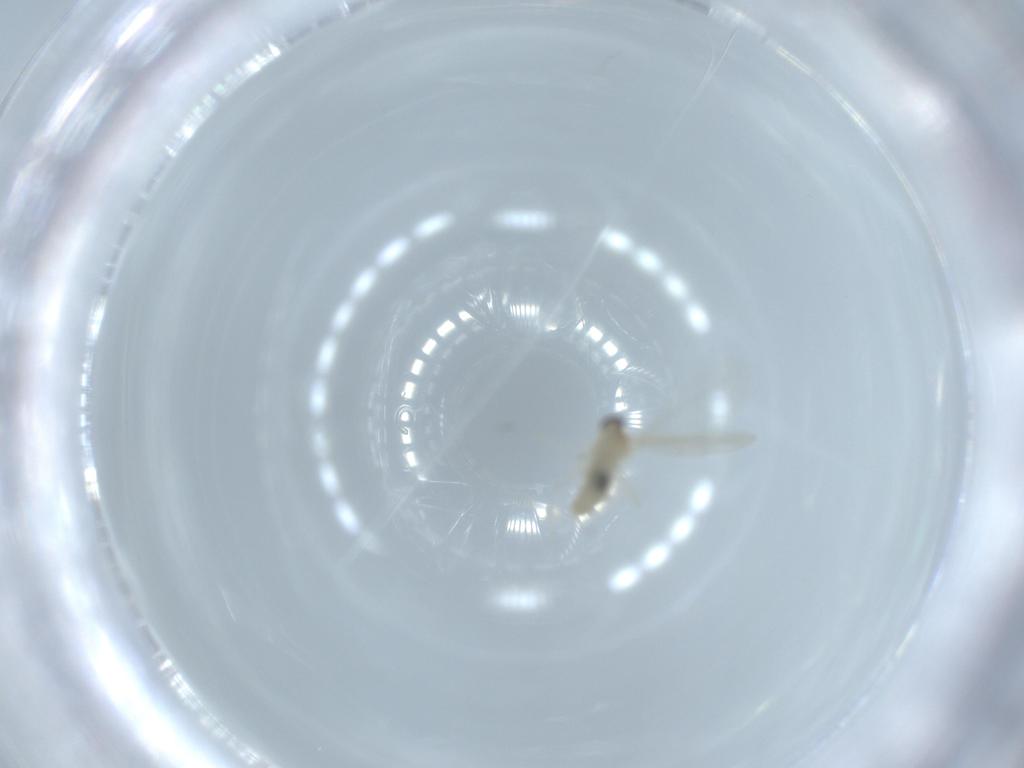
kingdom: Animalia
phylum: Arthropoda
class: Insecta
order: Diptera
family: Cecidomyiidae
